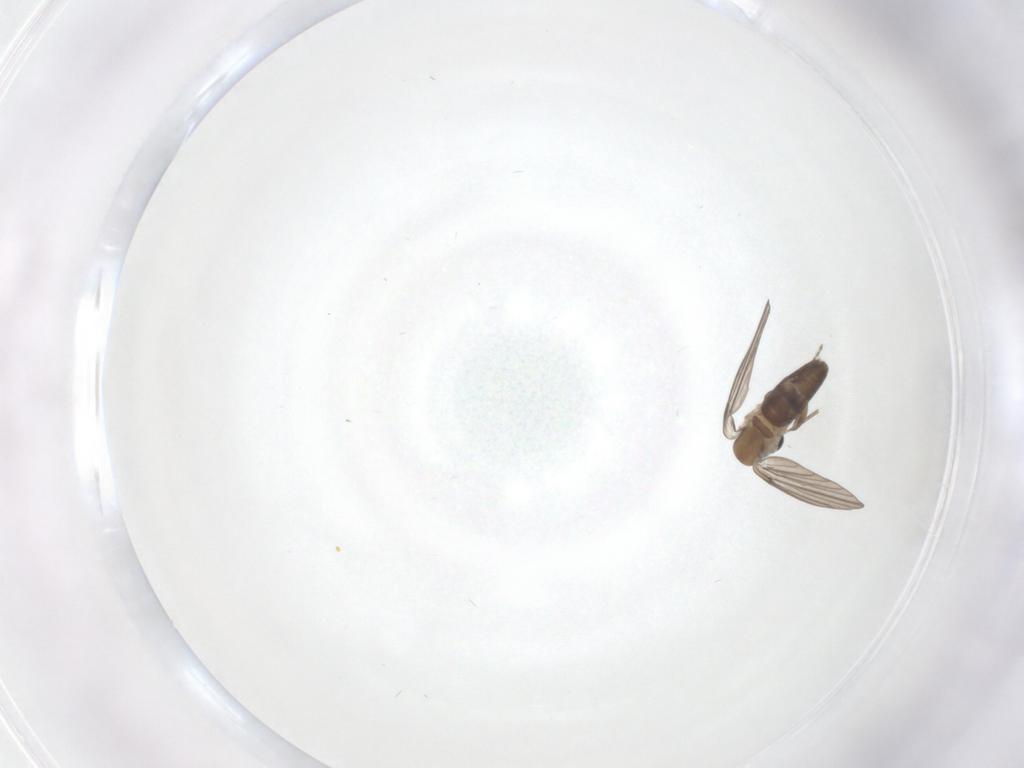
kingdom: Animalia
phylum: Arthropoda
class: Insecta
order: Diptera
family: Psychodidae
